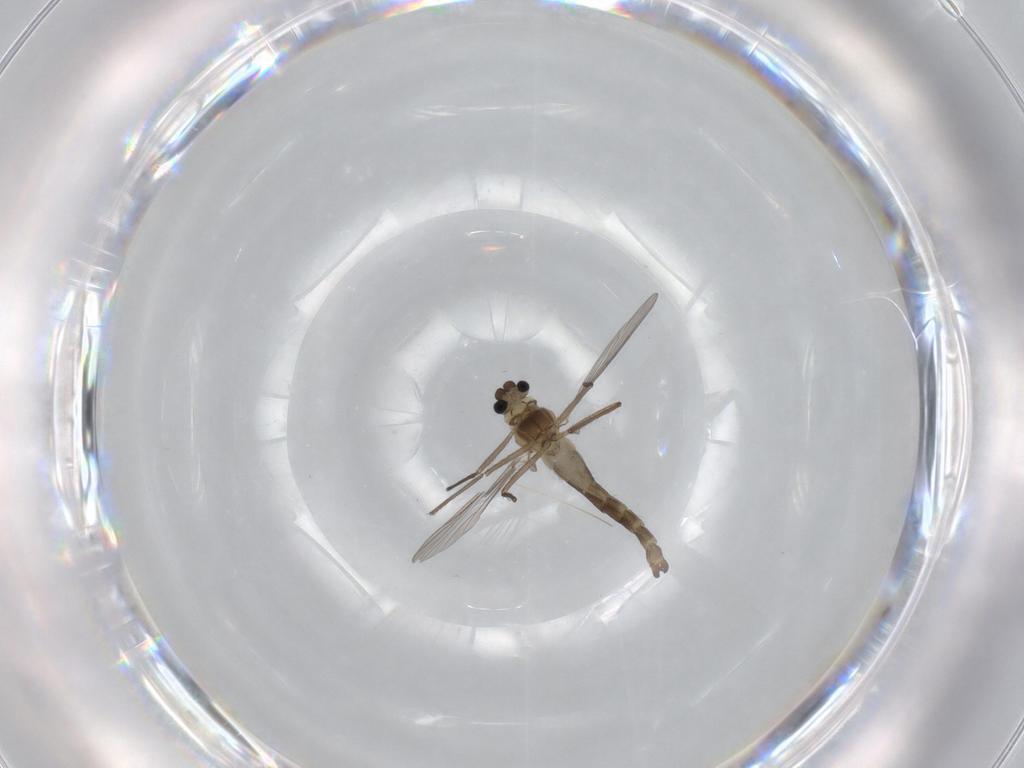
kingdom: Animalia
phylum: Arthropoda
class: Insecta
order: Diptera
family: Chironomidae
